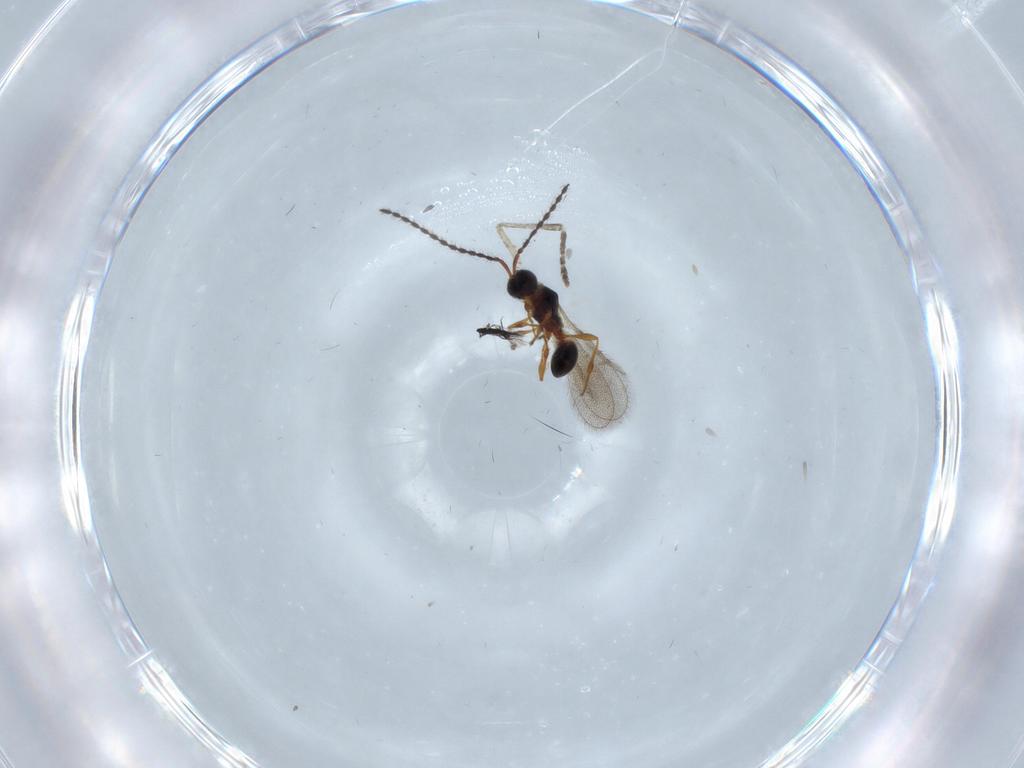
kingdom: Animalia
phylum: Arthropoda
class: Insecta
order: Hymenoptera
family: Diapriidae
